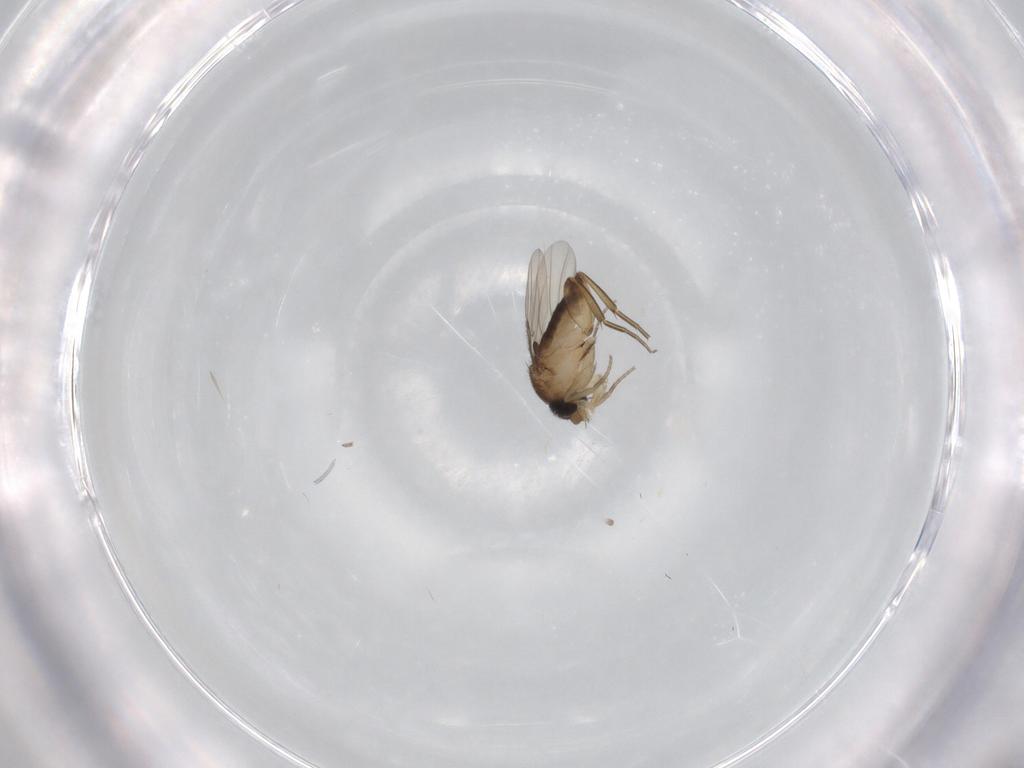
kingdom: Animalia
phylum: Arthropoda
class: Insecta
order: Diptera
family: Phoridae
